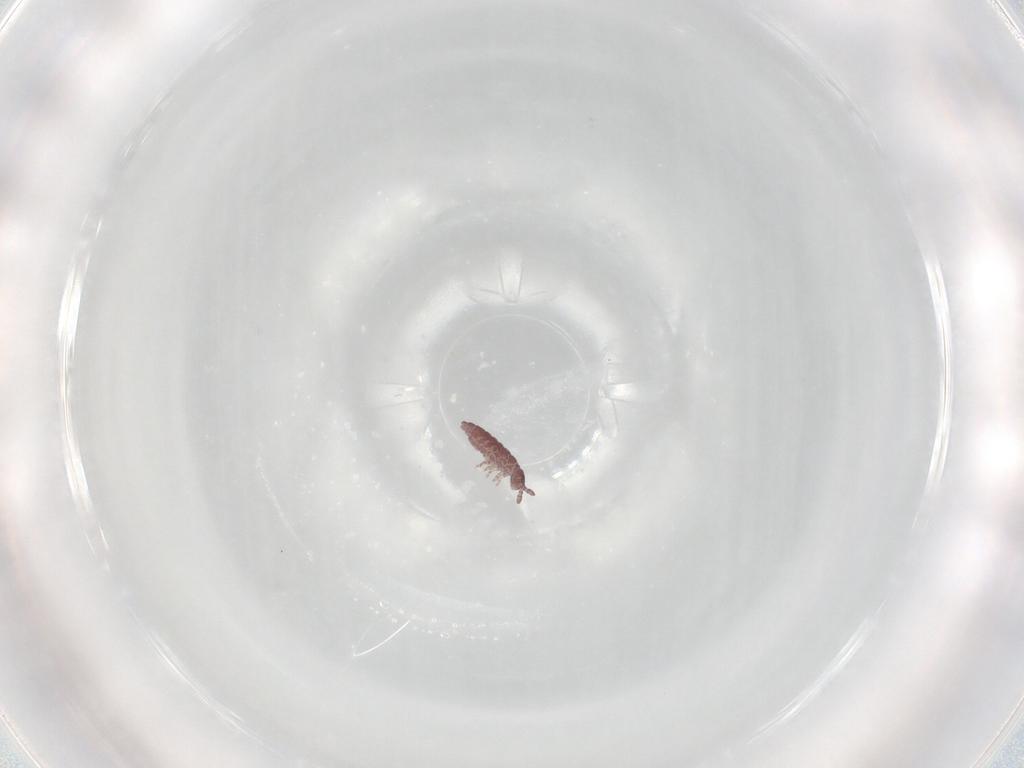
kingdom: Animalia
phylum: Arthropoda
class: Collembola
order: Poduromorpha
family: Hypogastruridae
